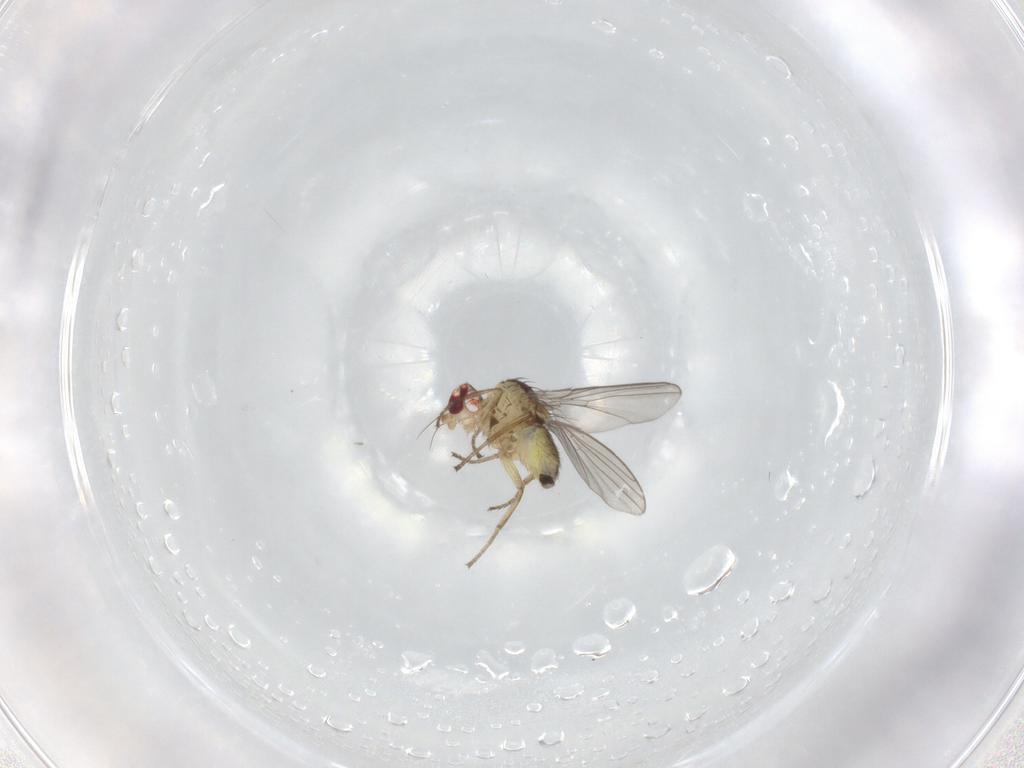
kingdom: Animalia
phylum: Arthropoda
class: Insecta
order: Diptera
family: Agromyzidae
